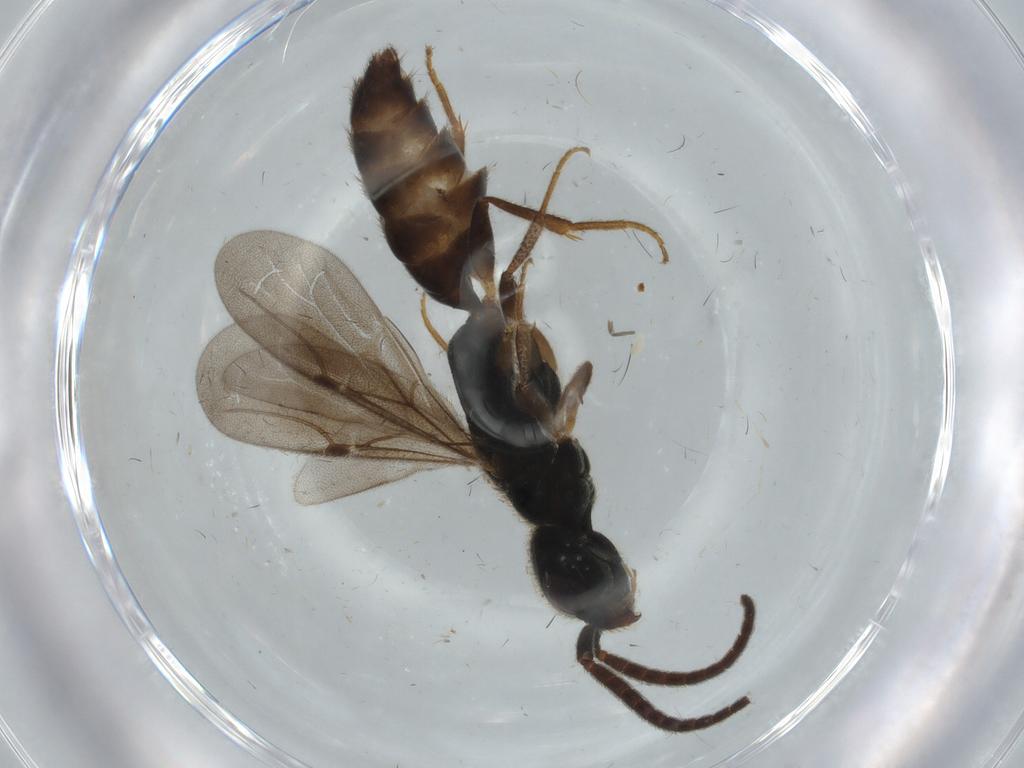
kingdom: Animalia
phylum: Arthropoda
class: Insecta
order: Hymenoptera
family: Bethylidae
